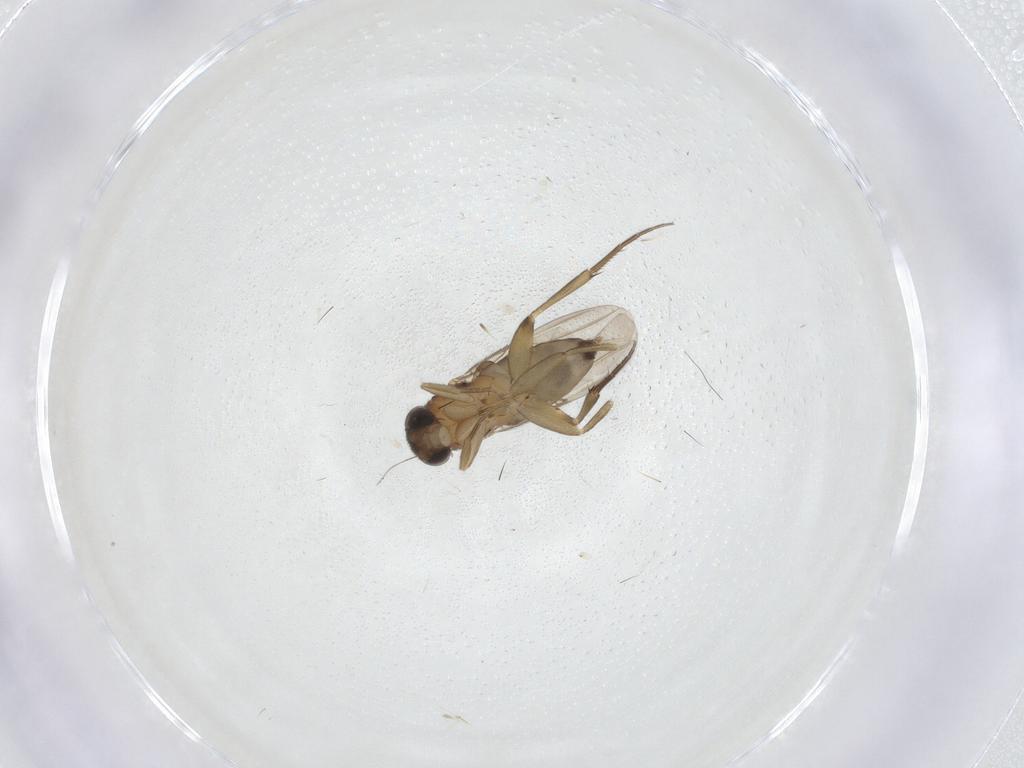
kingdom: Animalia
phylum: Arthropoda
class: Insecta
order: Diptera
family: Phoridae
